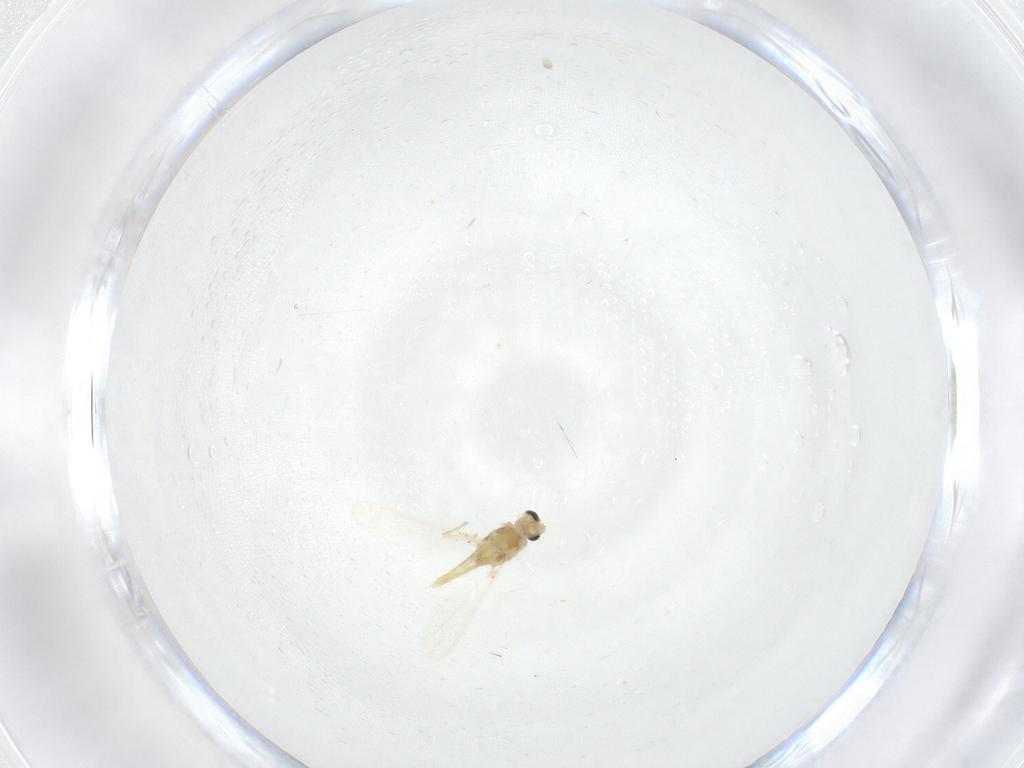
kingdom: Animalia
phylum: Arthropoda
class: Insecta
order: Diptera
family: Chironomidae
